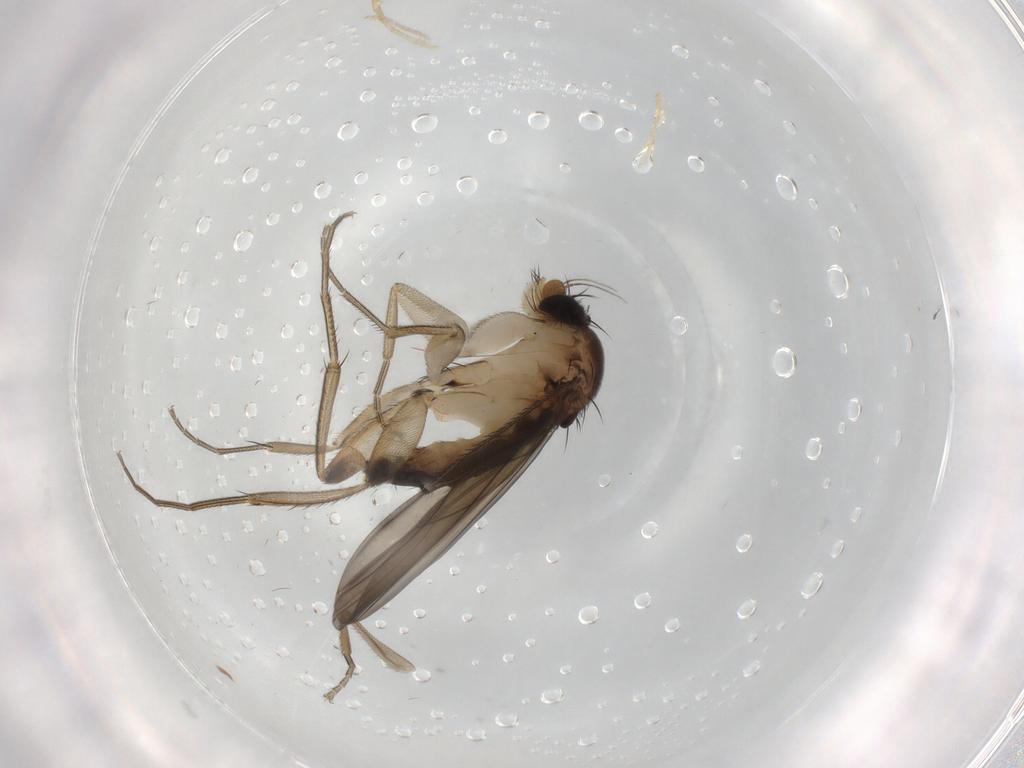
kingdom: Animalia
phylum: Arthropoda
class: Insecta
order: Diptera
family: Phoridae
